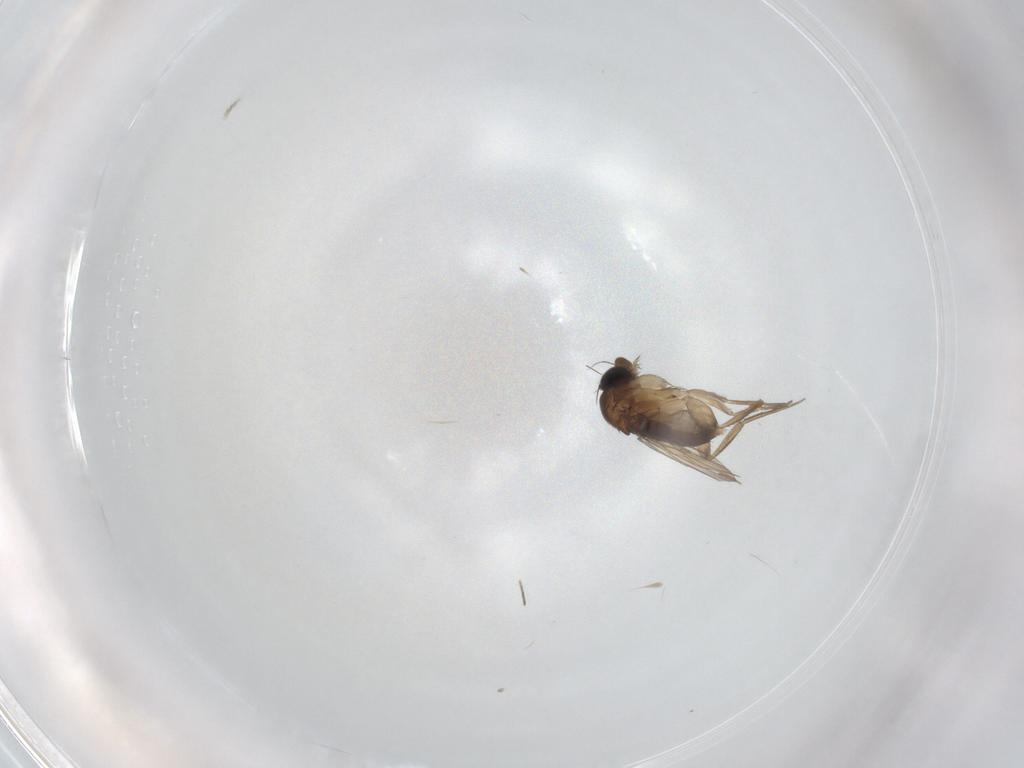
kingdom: Animalia
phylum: Arthropoda
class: Insecta
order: Diptera
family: Phoridae
